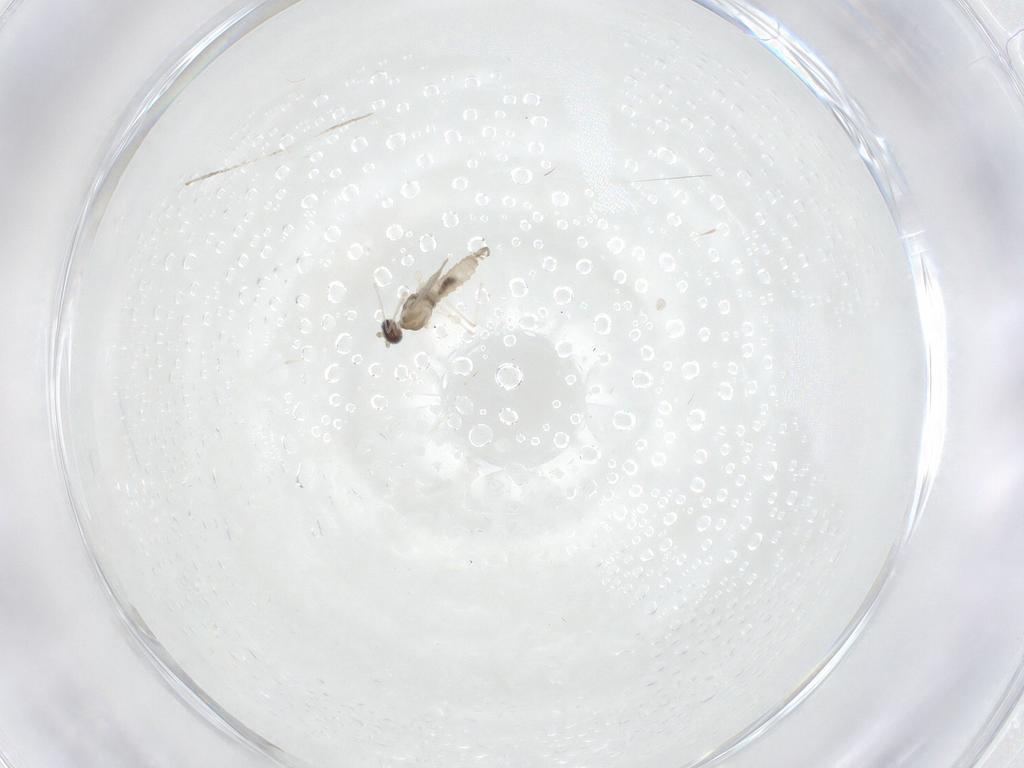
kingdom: Animalia
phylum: Arthropoda
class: Insecta
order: Diptera
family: Cecidomyiidae
